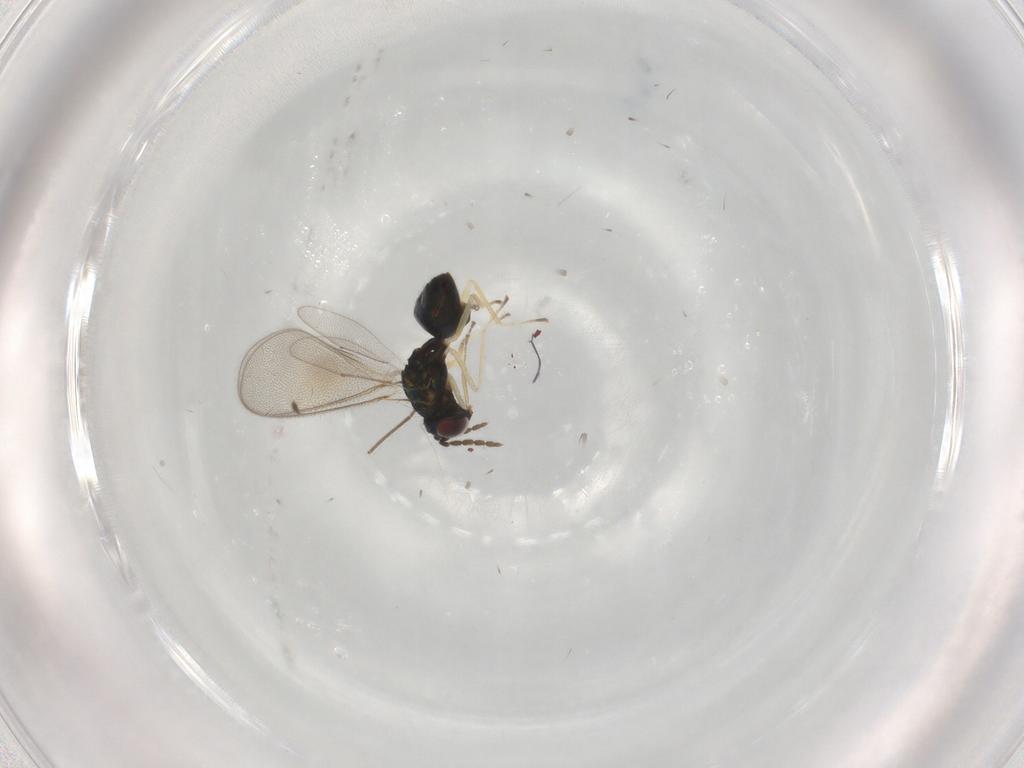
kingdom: Animalia
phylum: Arthropoda
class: Insecta
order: Hymenoptera
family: Eulophidae
